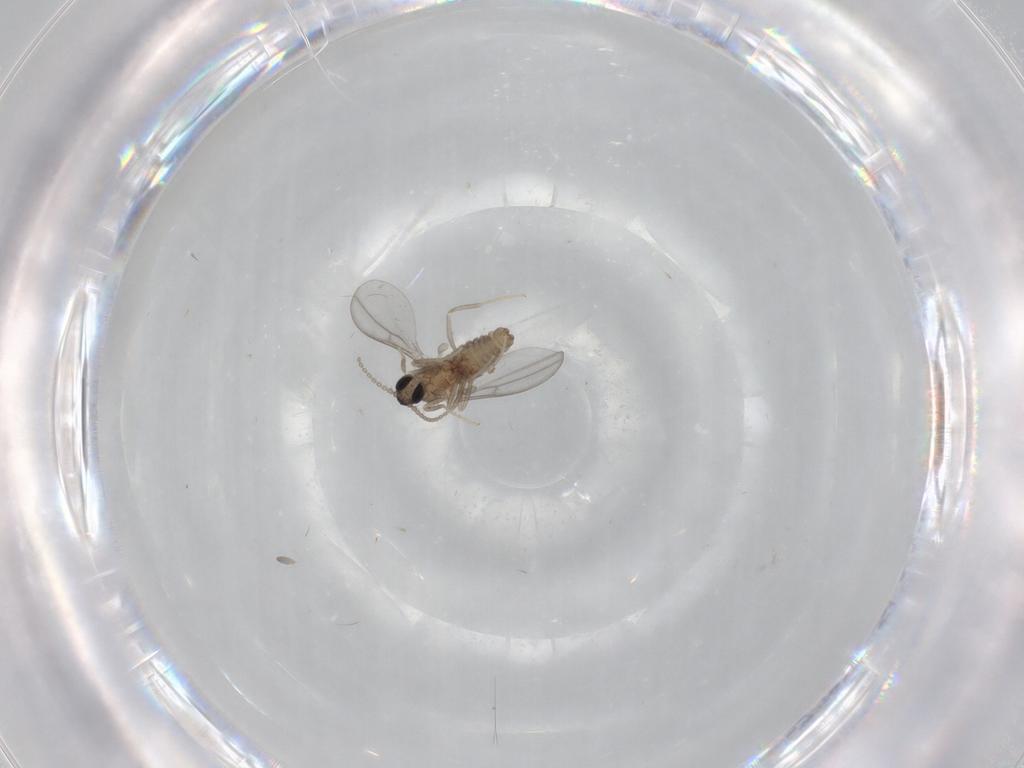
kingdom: Animalia
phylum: Arthropoda
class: Insecta
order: Diptera
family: Cecidomyiidae
